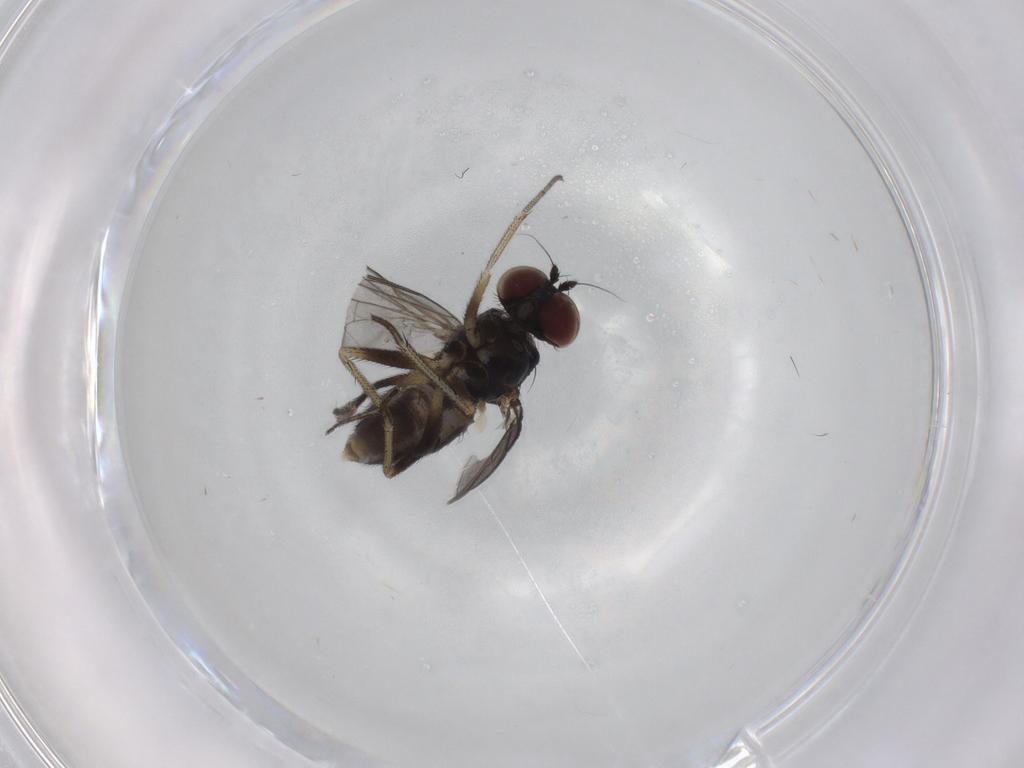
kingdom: Animalia
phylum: Arthropoda
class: Insecta
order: Diptera
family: Dolichopodidae
